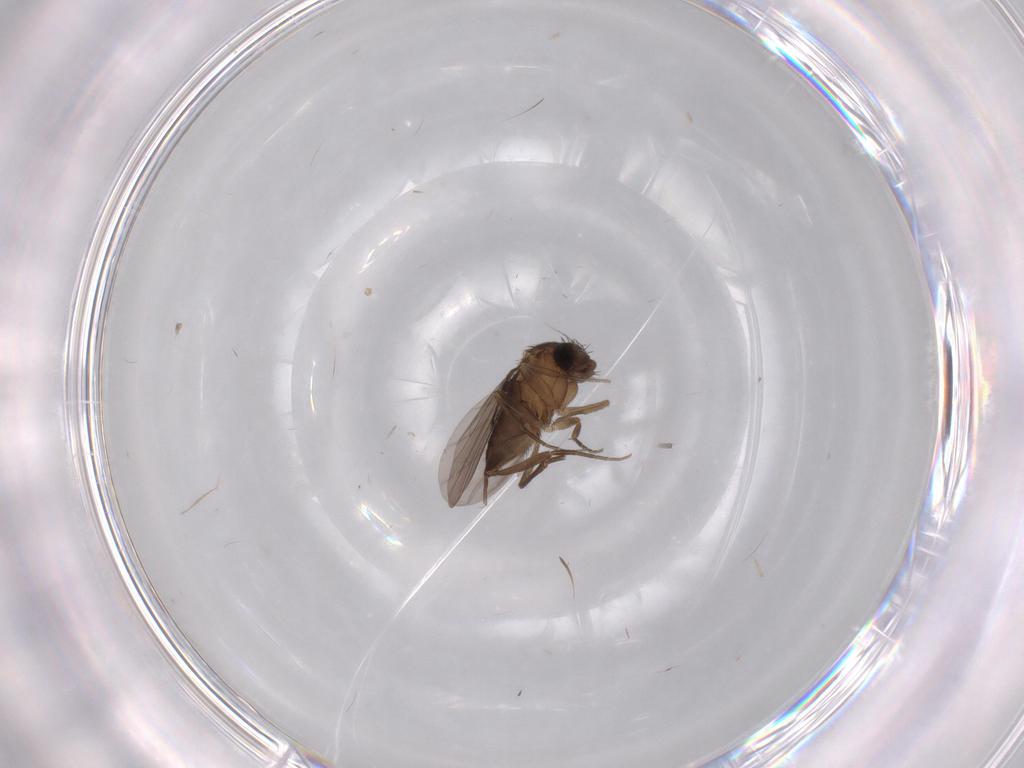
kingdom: Animalia
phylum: Arthropoda
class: Insecta
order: Diptera
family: Phoridae
